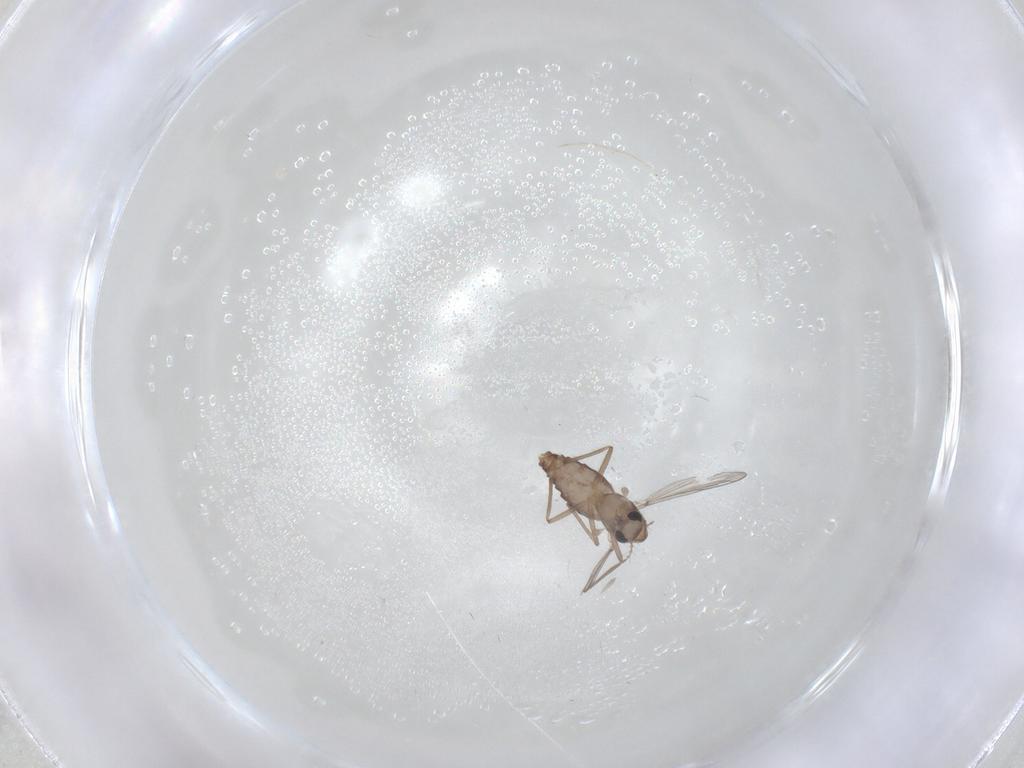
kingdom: Animalia
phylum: Arthropoda
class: Insecta
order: Diptera
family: Chironomidae
